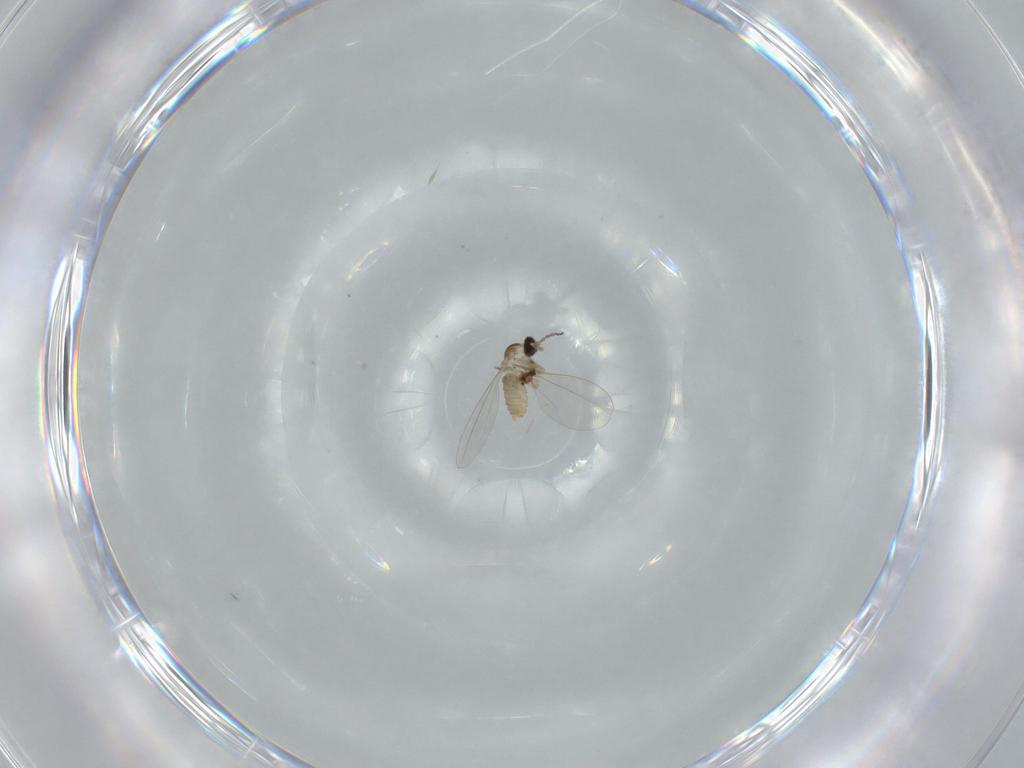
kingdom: Animalia
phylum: Arthropoda
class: Insecta
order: Diptera
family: Cecidomyiidae
